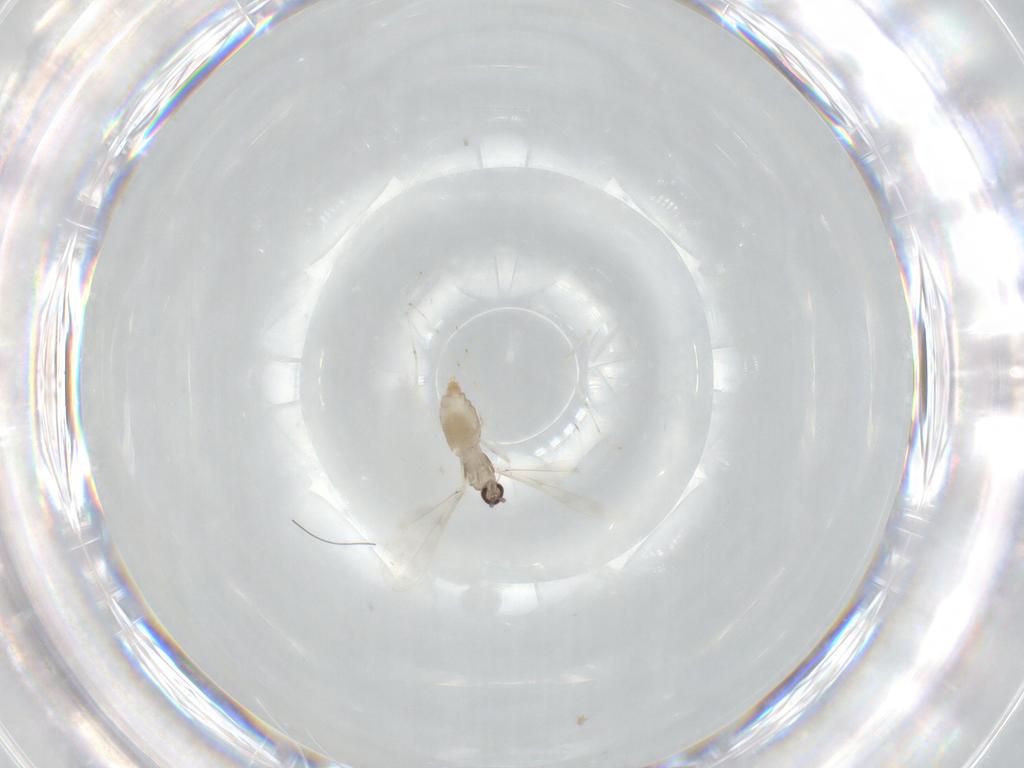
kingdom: Animalia
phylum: Arthropoda
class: Insecta
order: Diptera
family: Cecidomyiidae
